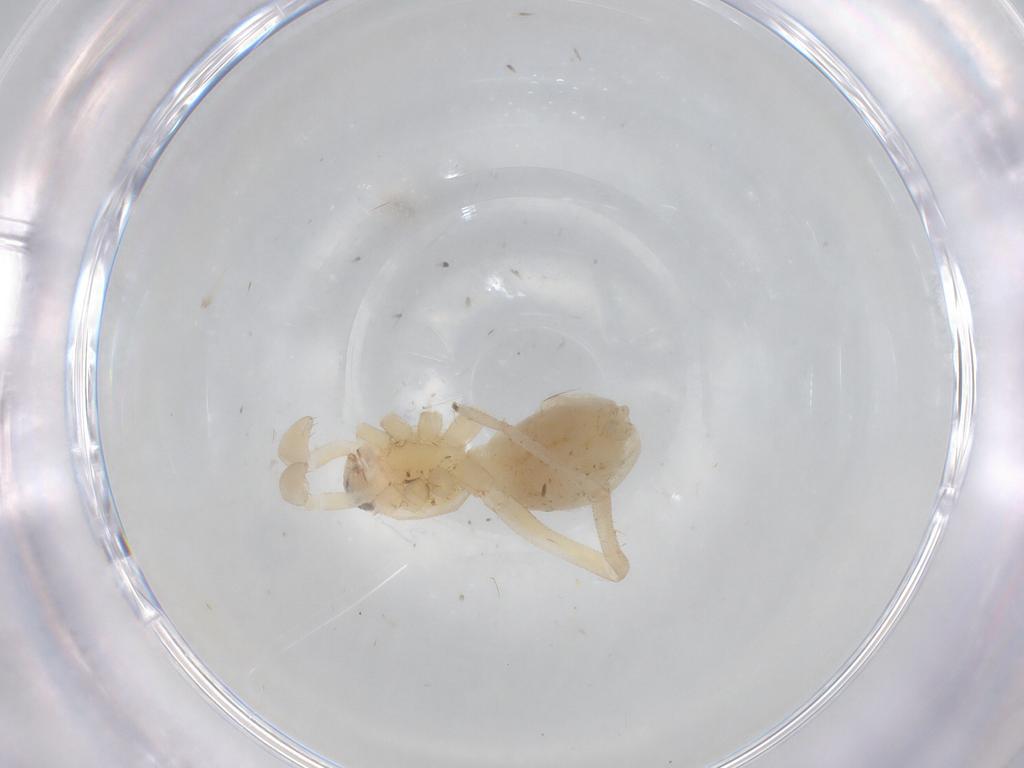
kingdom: Animalia
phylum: Arthropoda
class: Arachnida
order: Araneae
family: Gnaphosidae
